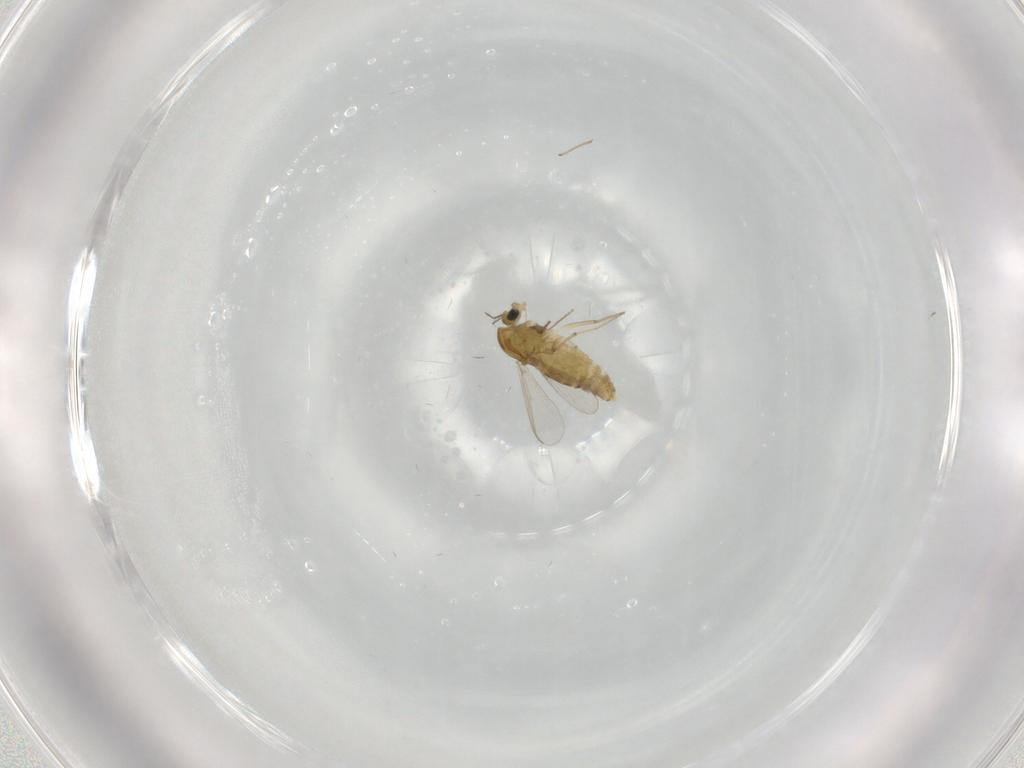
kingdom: Animalia
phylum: Arthropoda
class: Insecta
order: Diptera
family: Chironomidae
